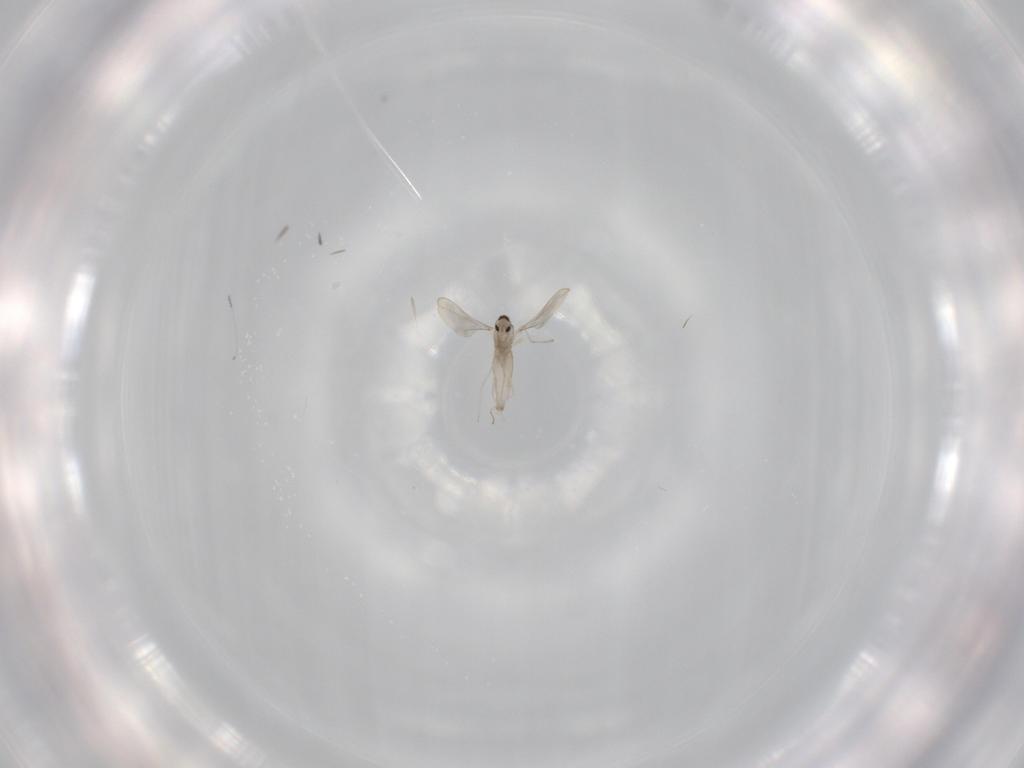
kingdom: Animalia
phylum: Arthropoda
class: Insecta
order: Diptera
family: Cecidomyiidae
